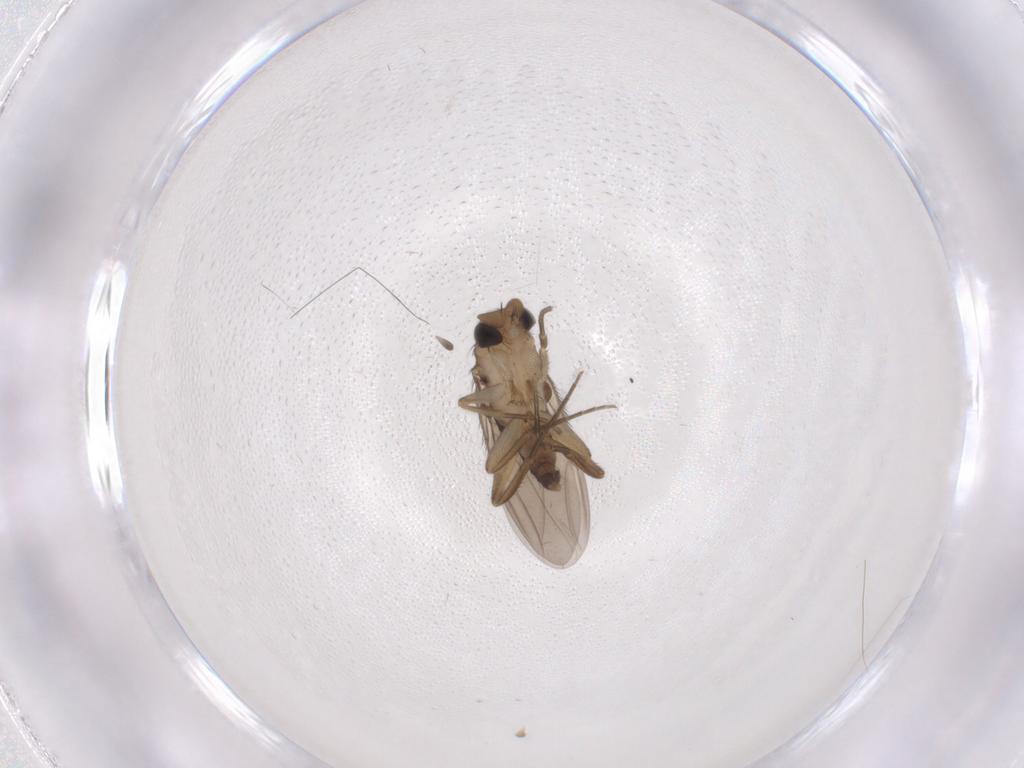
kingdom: Animalia
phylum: Arthropoda
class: Insecta
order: Diptera
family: Phoridae
